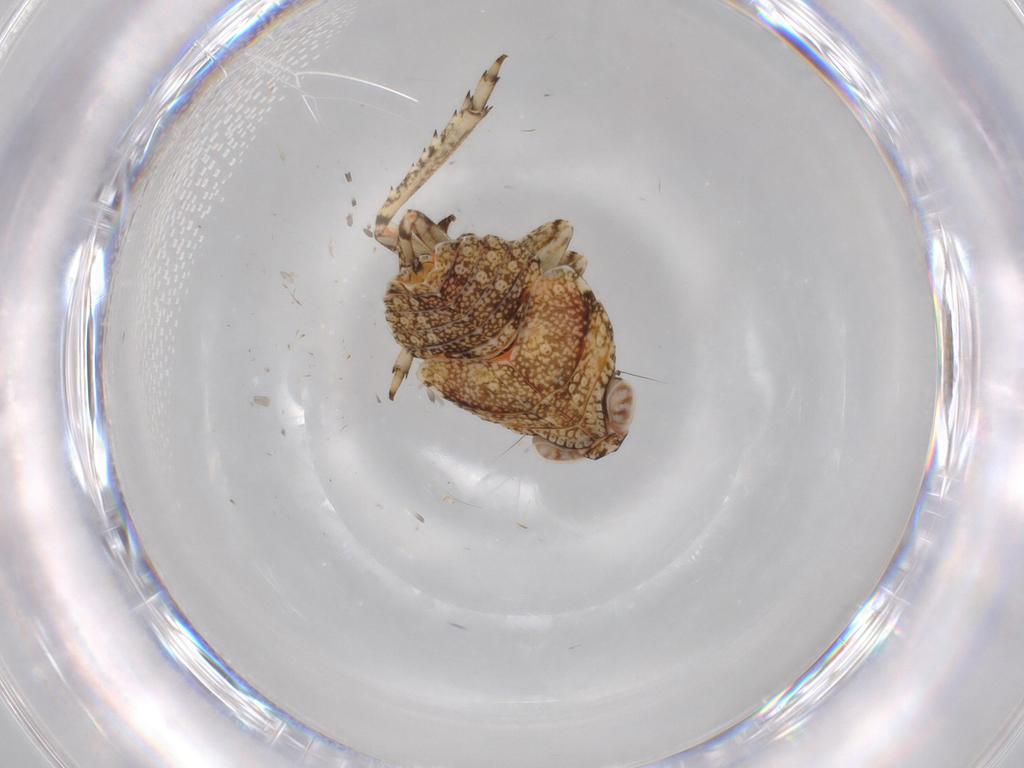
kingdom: Animalia
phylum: Arthropoda
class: Insecta
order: Hemiptera
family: Issidae
